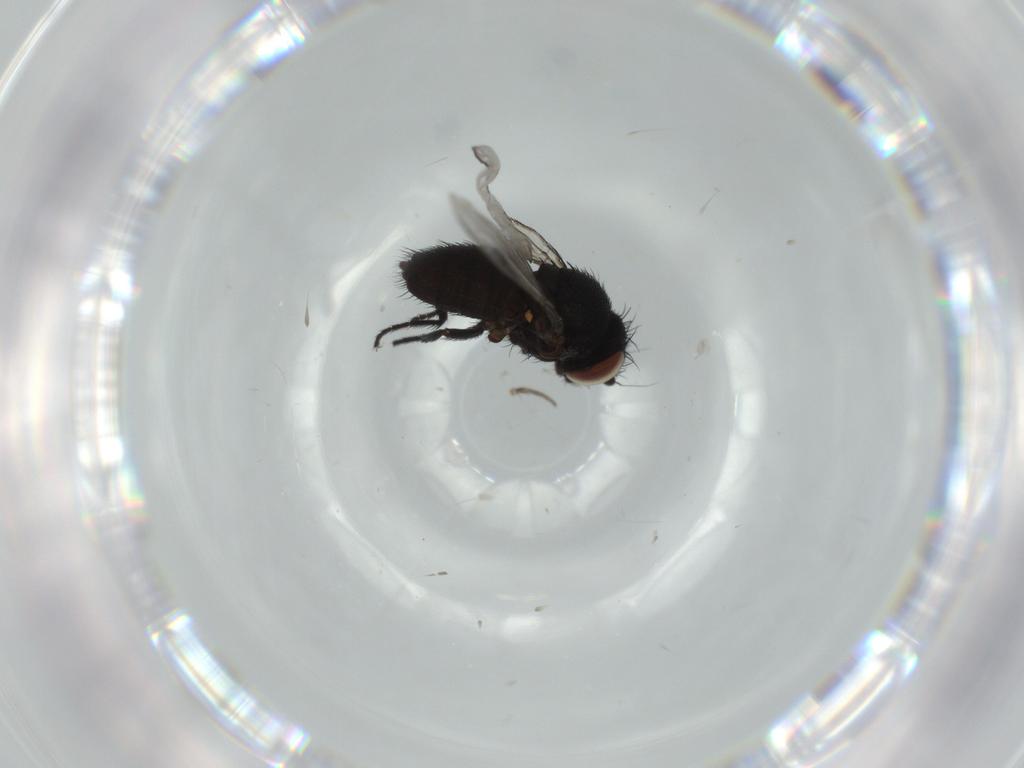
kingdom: Animalia
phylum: Arthropoda
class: Insecta
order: Diptera
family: Milichiidae
